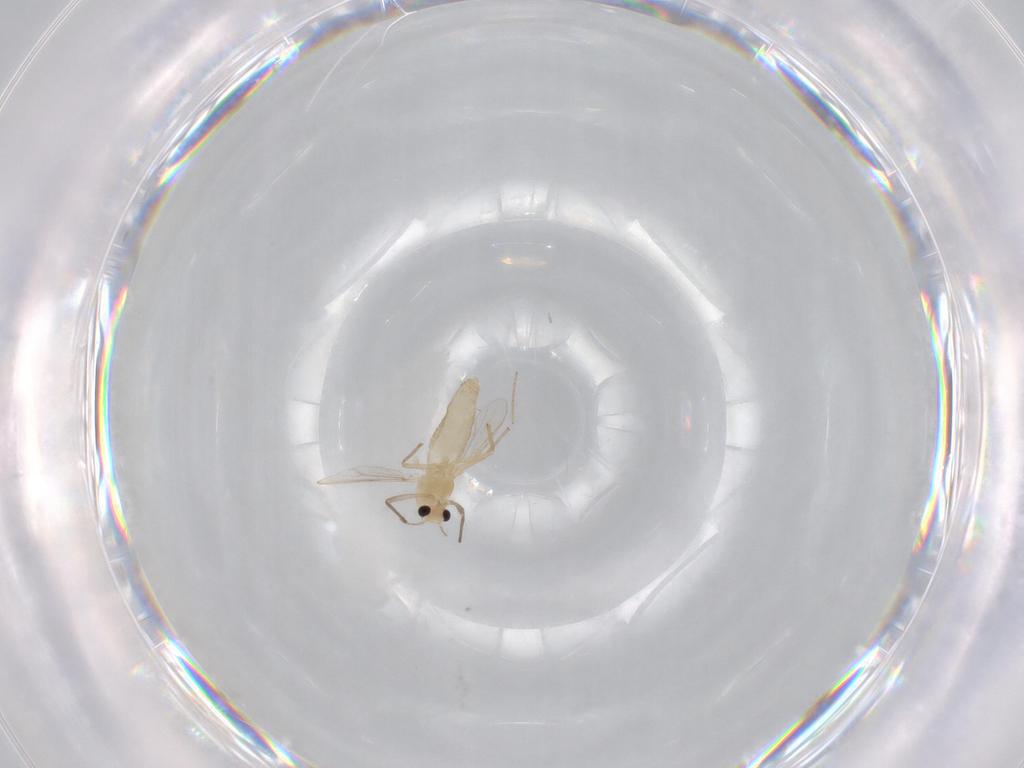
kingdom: Animalia
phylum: Arthropoda
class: Insecta
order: Diptera
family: Chironomidae
